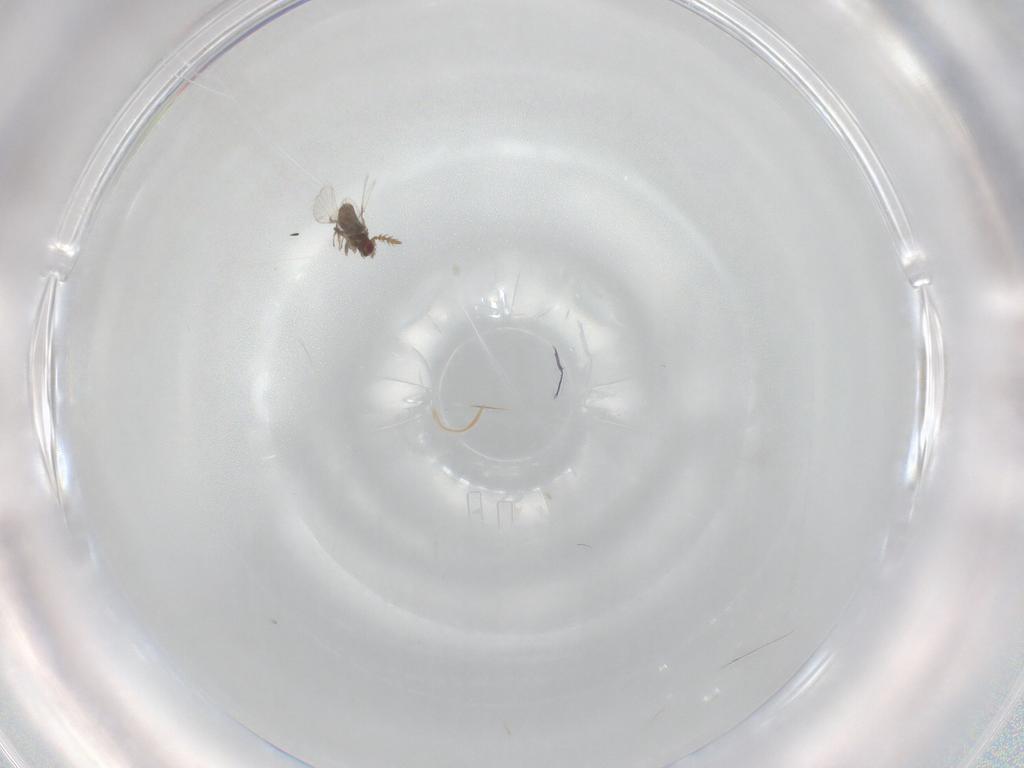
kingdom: Animalia
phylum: Arthropoda
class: Insecta
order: Hymenoptera
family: Agaonidae
